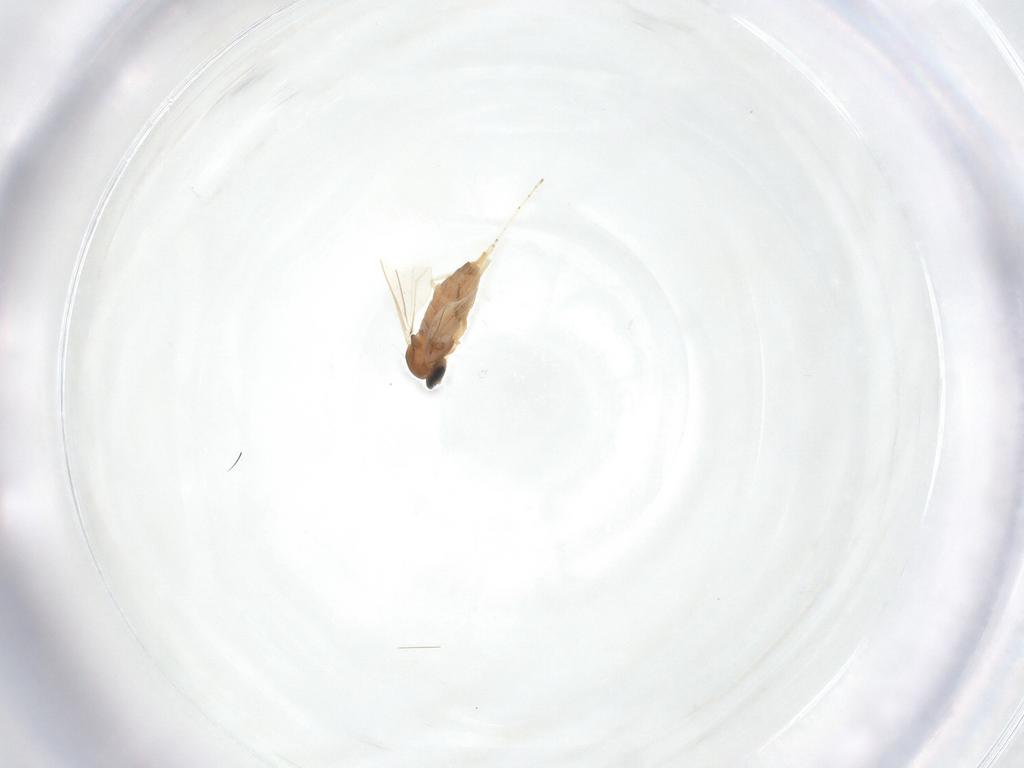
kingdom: Animalia
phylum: Arthropoda
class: Insecta
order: Diptera
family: Cecidomyiidae
